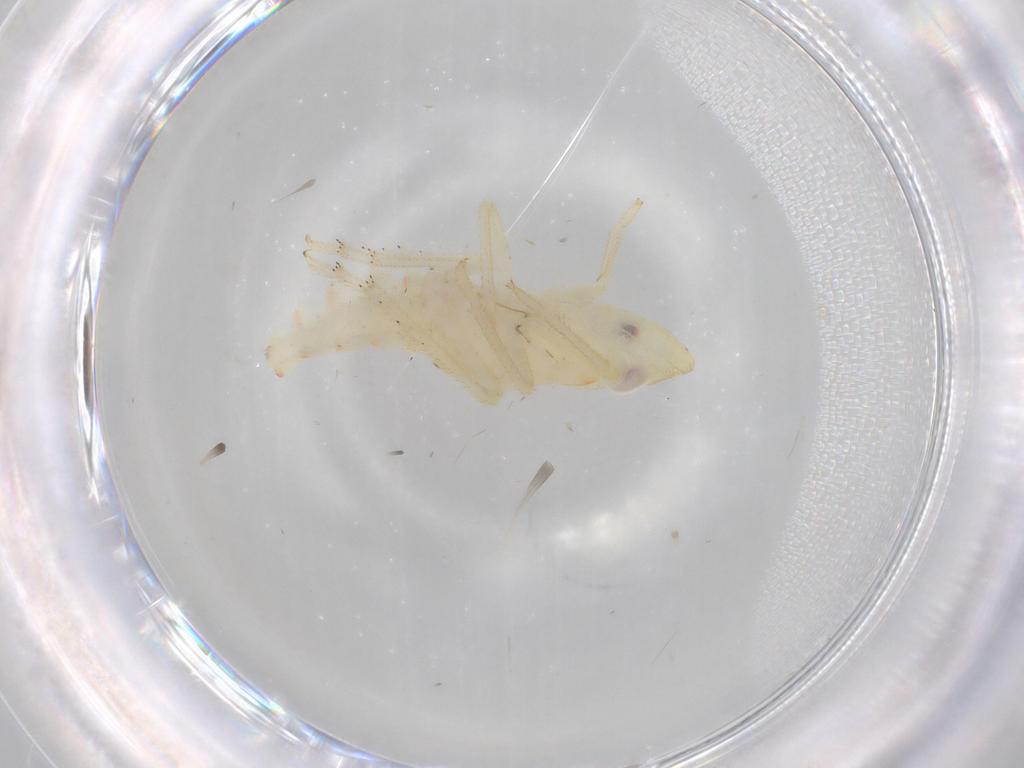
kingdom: Animalia
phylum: Arthropoda
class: Insecta
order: Hemiptera
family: Tropiduchidae
